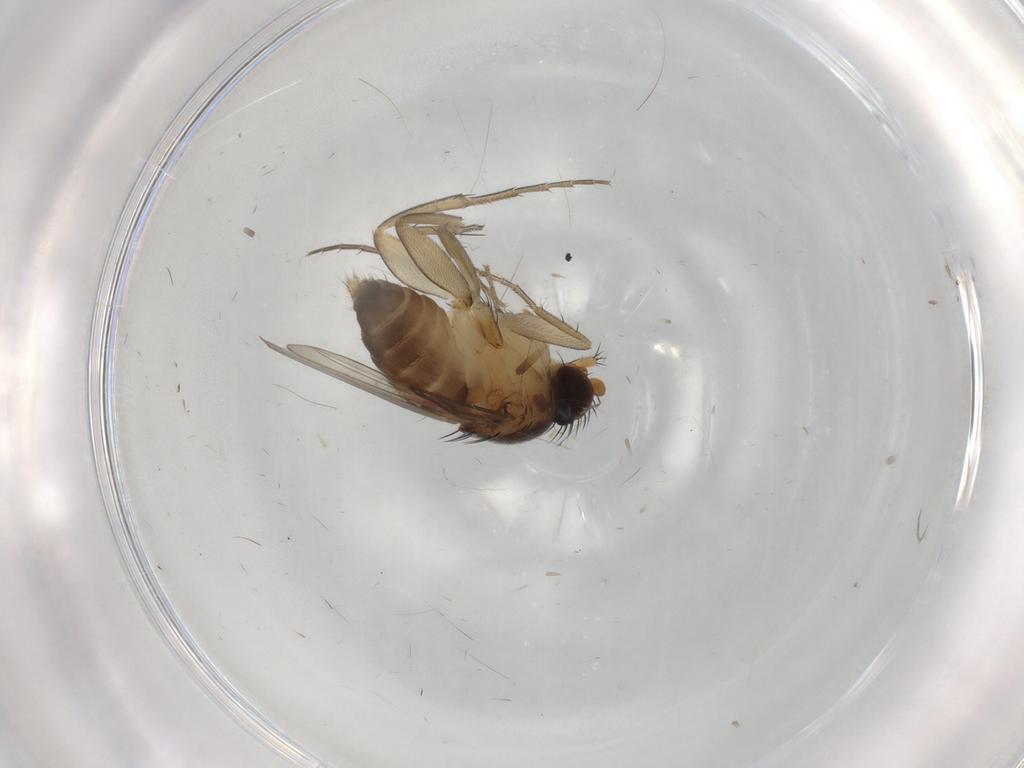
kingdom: Animalia
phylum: Arthropoda
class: Insecta
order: Diptera
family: Phoridae
